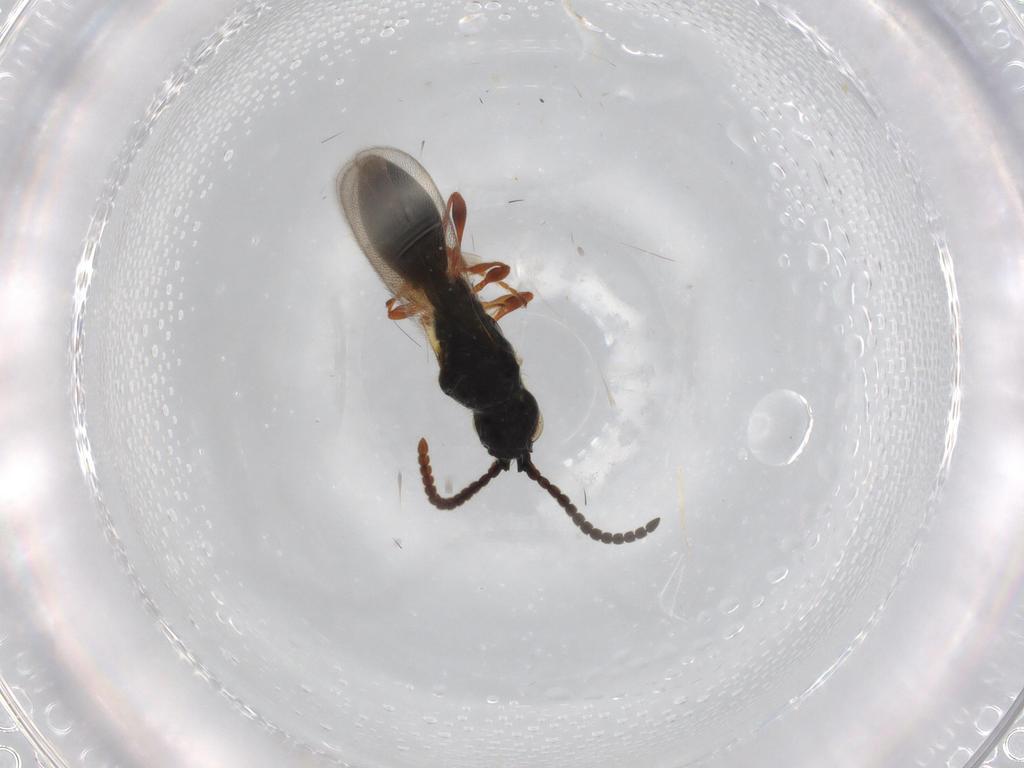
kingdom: Animalia
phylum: Arthropoda
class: Insecta
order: Hymenoptera
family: Diapriidae
